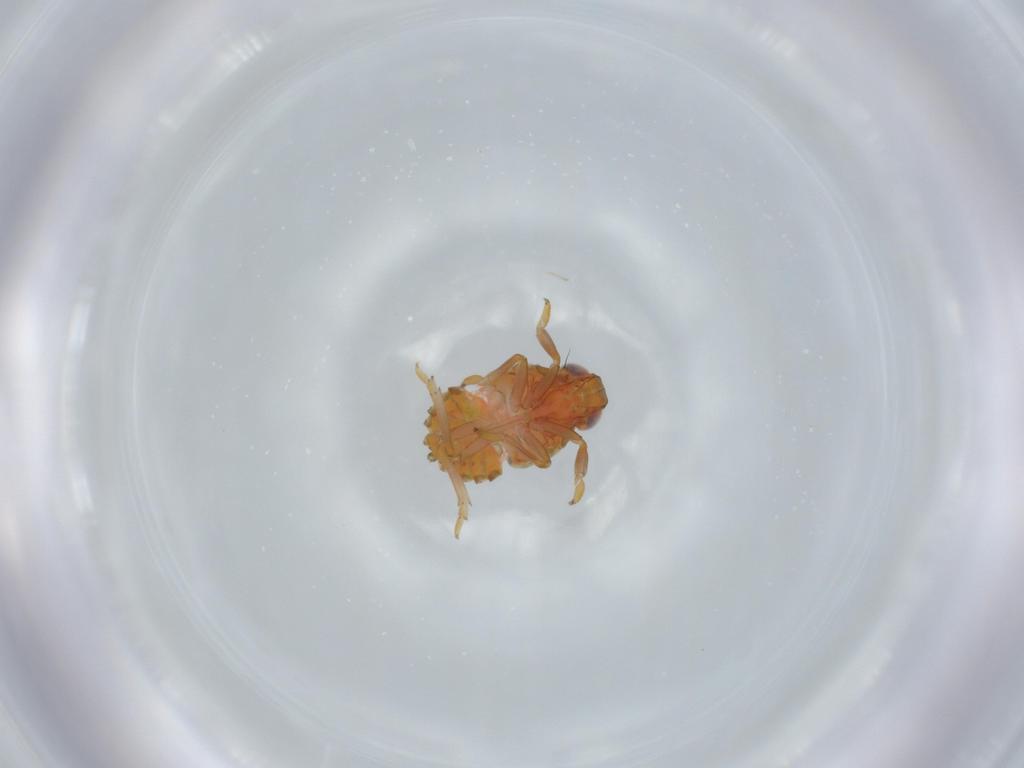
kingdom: Animalia
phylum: Arthropoda
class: Insecta
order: Hemiptera
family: Issidae
